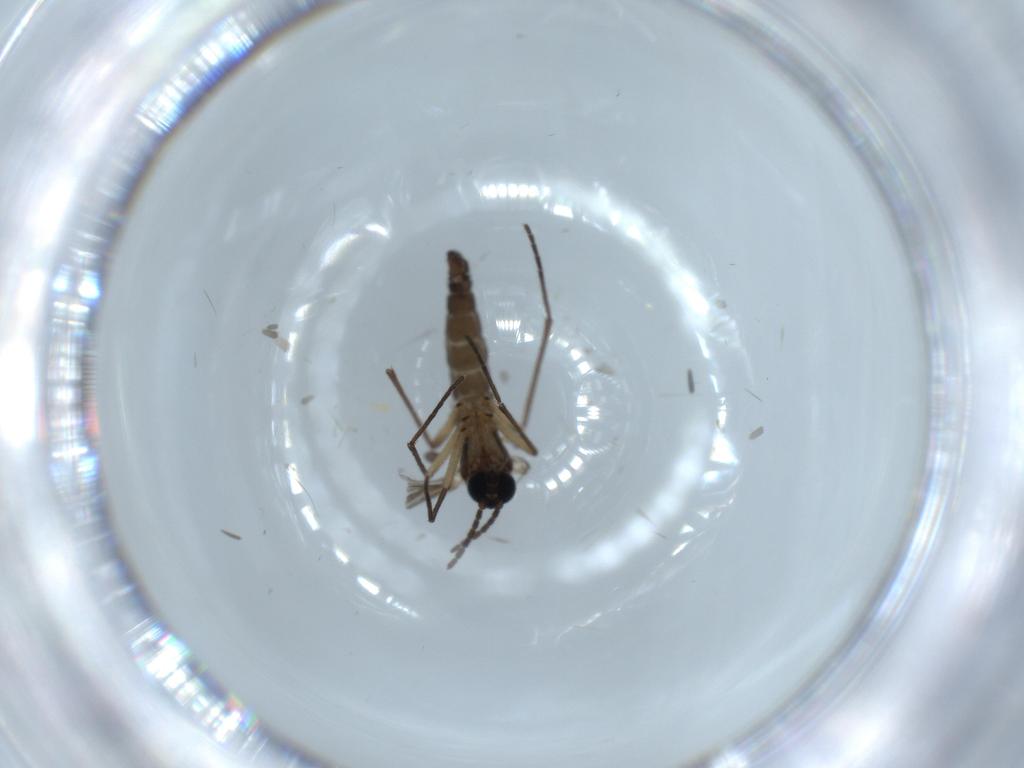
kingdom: Animalia
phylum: Arthropoda
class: Insecta
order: Diptera
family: Sciaridae
